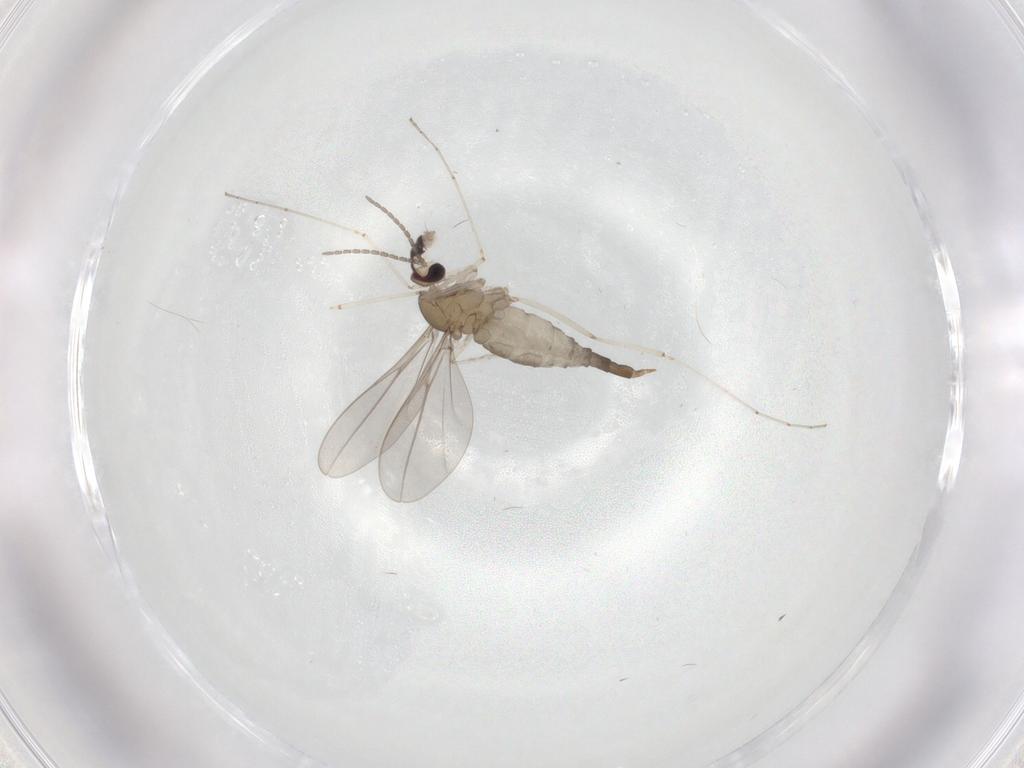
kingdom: Animalia
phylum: Arthropoda
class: Insecta
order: Diptera
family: Cecidomyiidae
